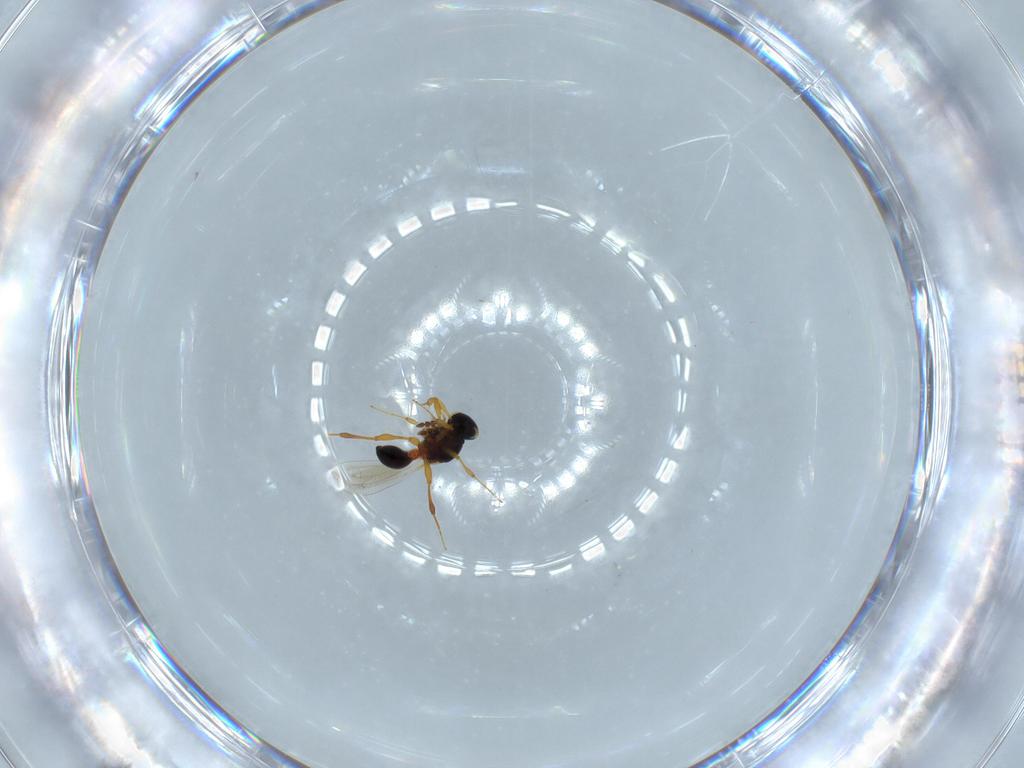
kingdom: Animalia
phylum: Arthropoda
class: Insecta
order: Hymenoptera
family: Platygastridae
